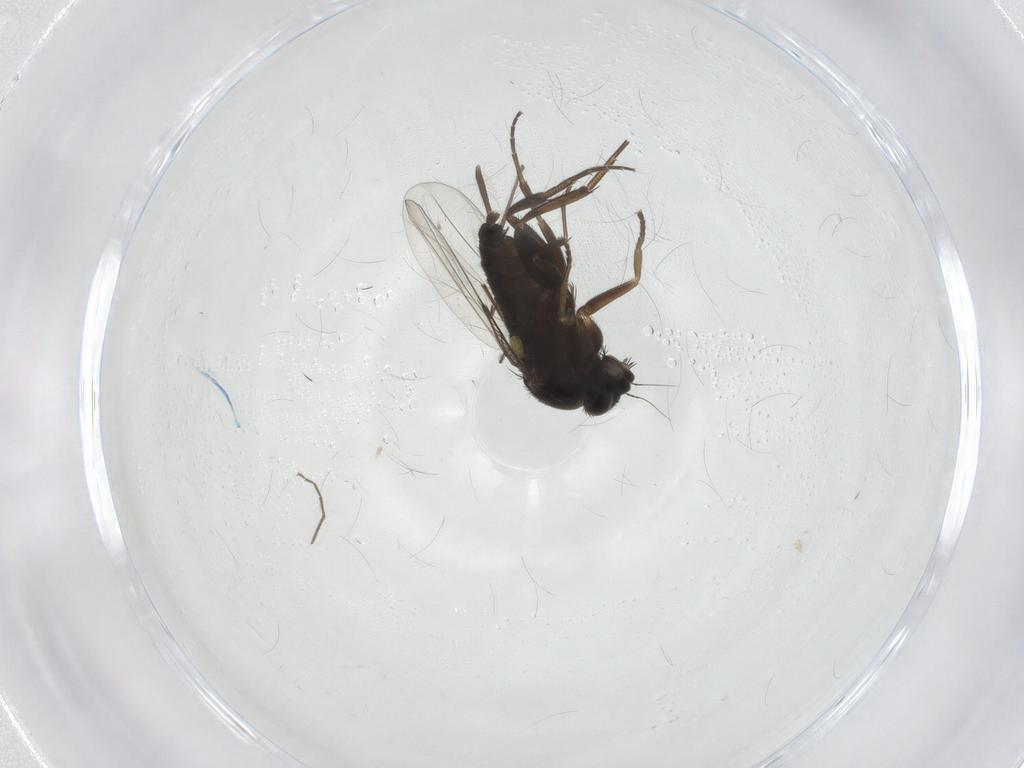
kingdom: Animalia
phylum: Arthropoda
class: Insecta
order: Diptera
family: Phoridae
